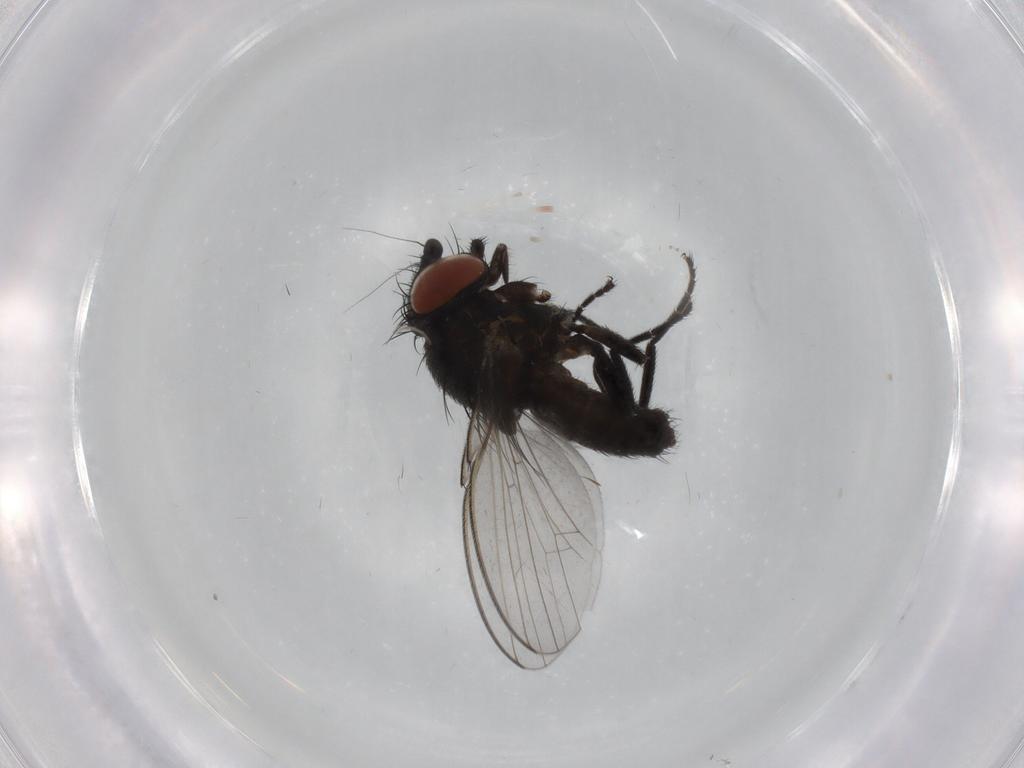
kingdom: Animalia
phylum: Arthropoda
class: Insecta
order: Diptera
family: Milichiidae
